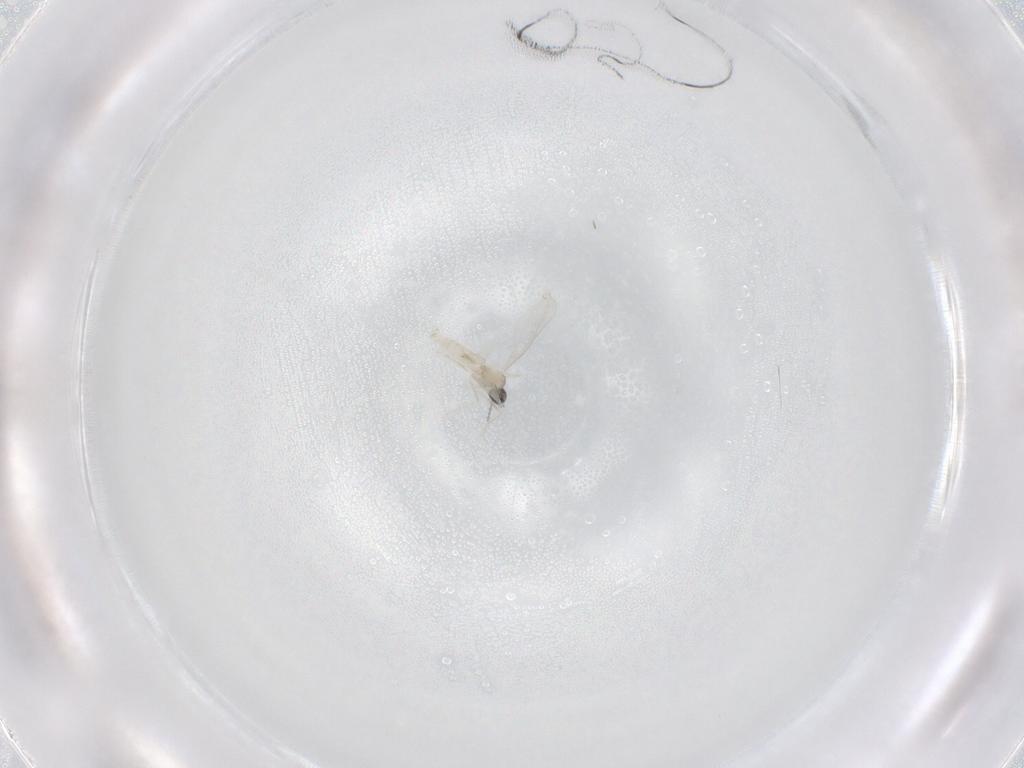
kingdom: Animalia
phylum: Arthropoda
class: Insecta
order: Diptera
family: Cecidomyiidae
